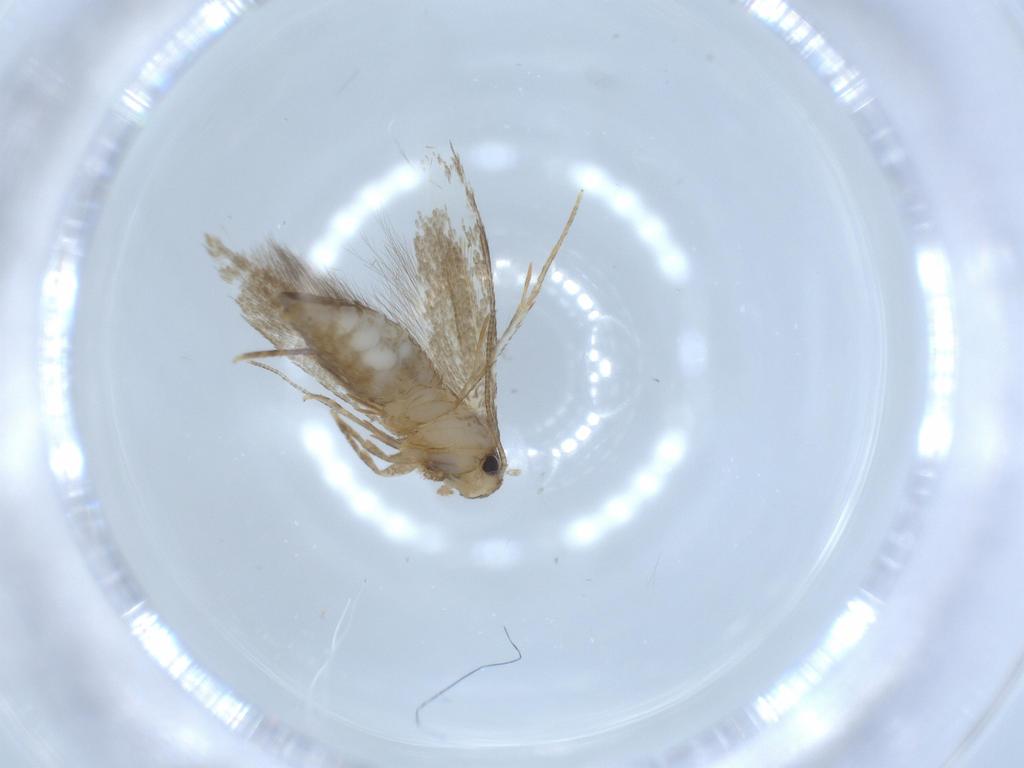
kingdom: Animalia
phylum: Arthropoda
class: Insecta
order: Lepidoptera
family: Tineidae
